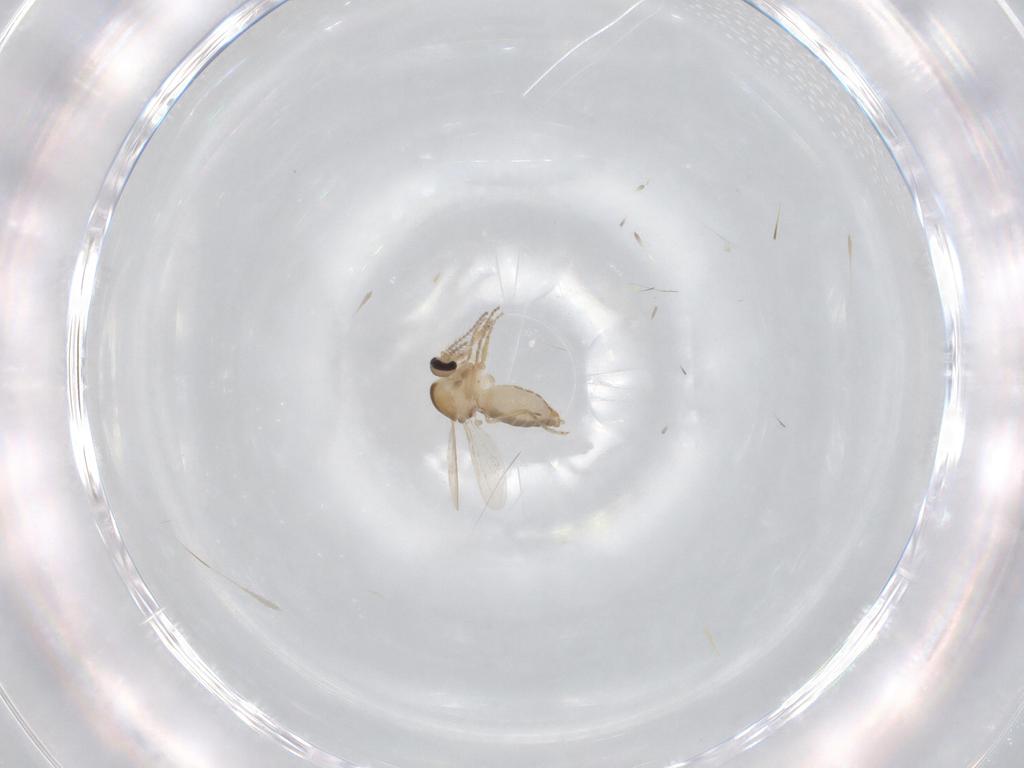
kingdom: Animalia
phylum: Arthropoda
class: Insecta
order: Diptera
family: Ceratopogonidae
